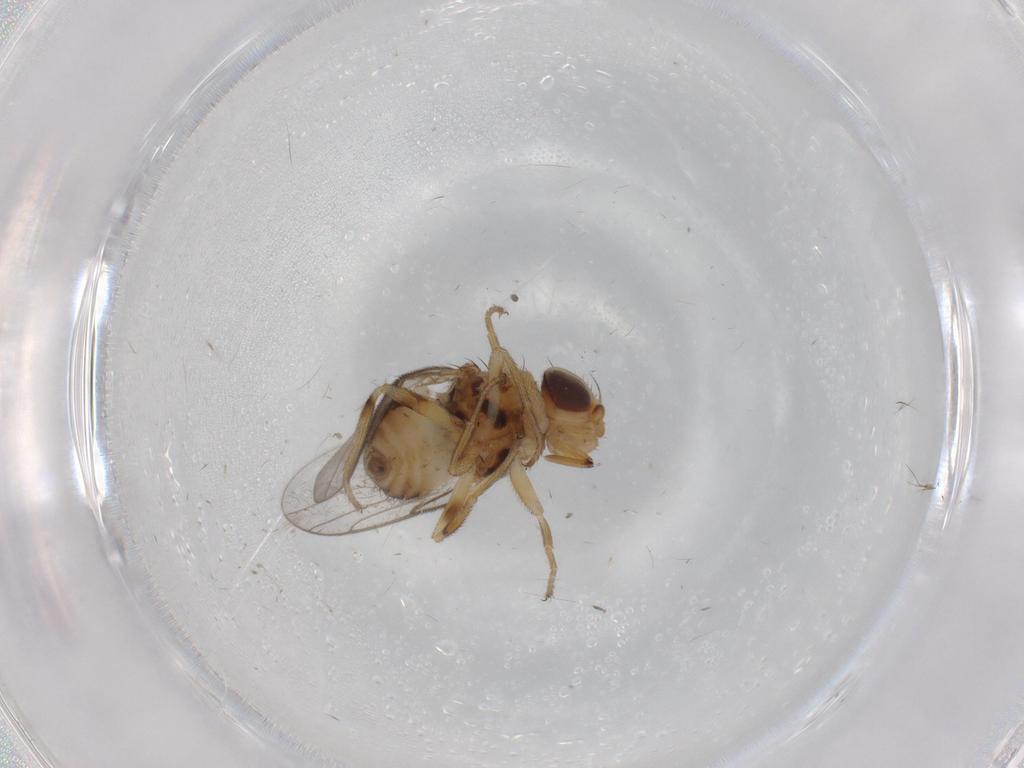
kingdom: Animalia
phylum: Arthropoda
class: Insecta
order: Diptera
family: Chloropidae
